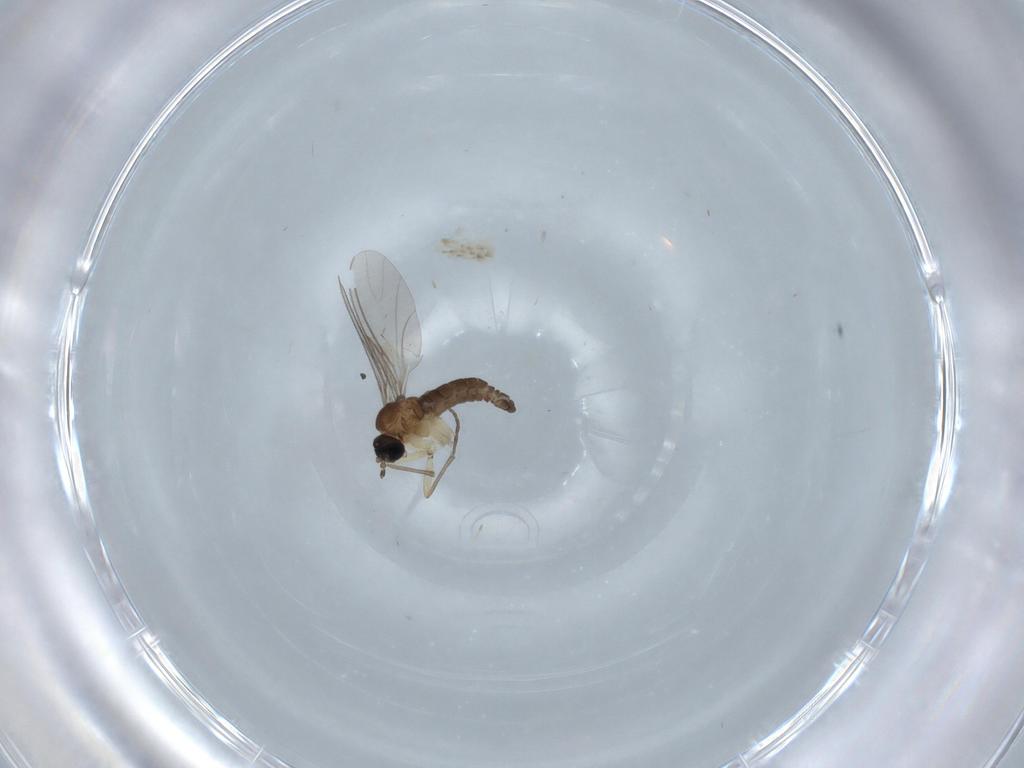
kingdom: Animalia
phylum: Arthropoda
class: Insecta
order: Diptera
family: Sciaridae
